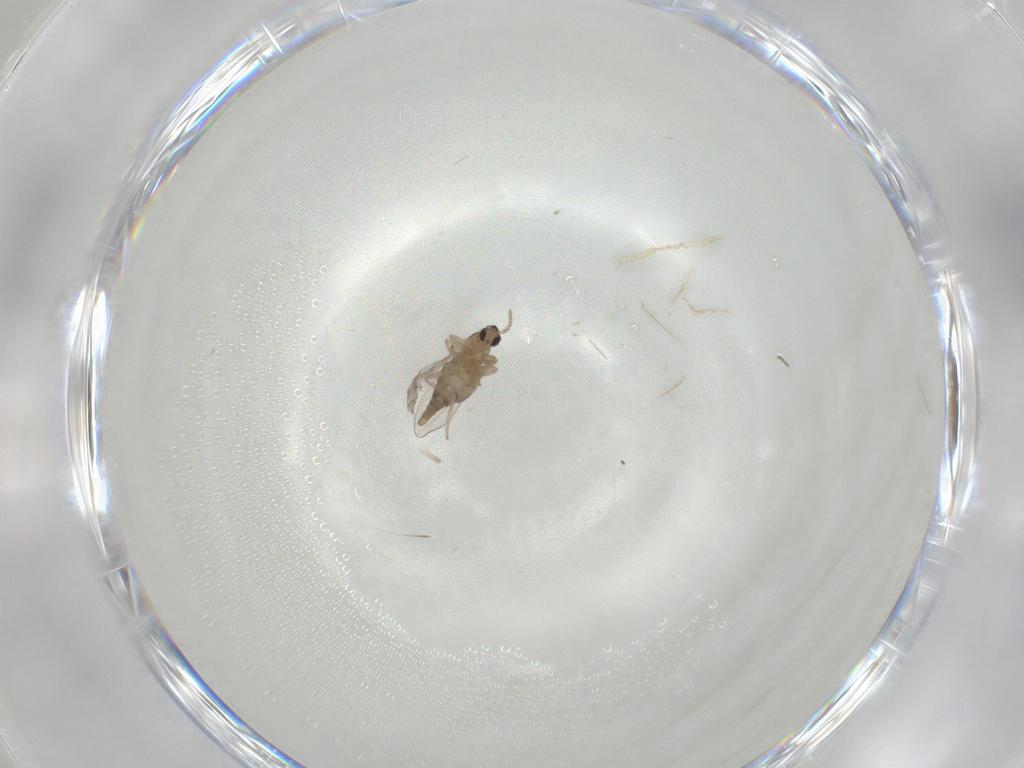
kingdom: Animalia
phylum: Arthropoda
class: Insecta
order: Diptera
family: Cecidomyiidae
